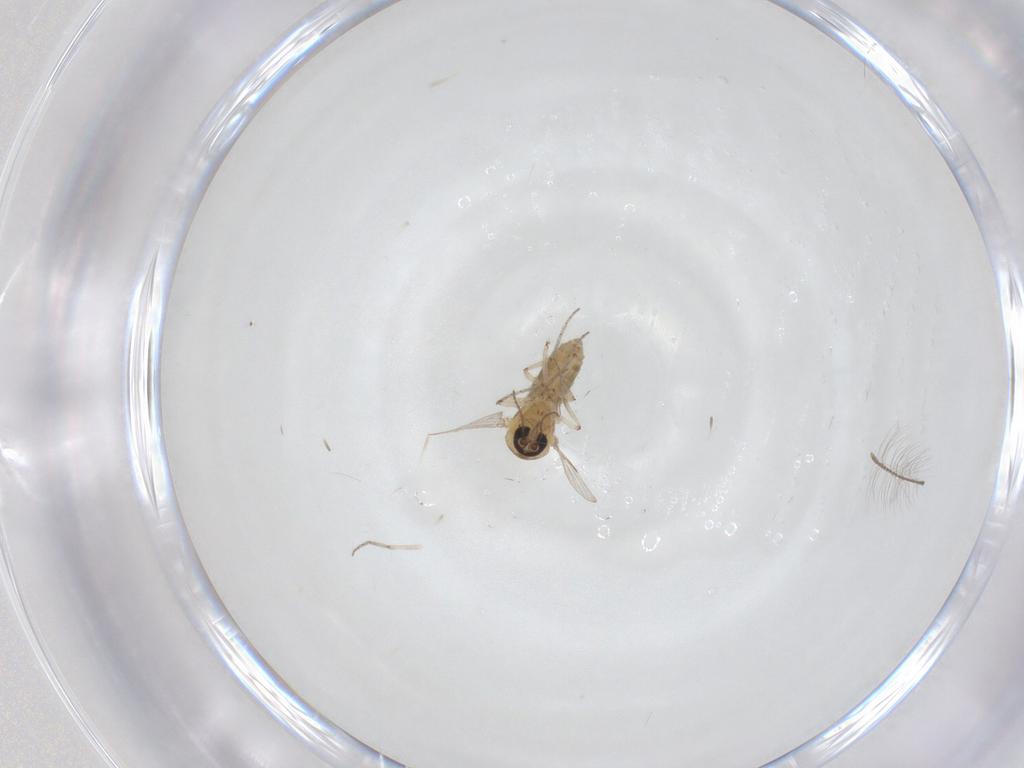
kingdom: Animalia
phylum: Arthropoda
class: Insecta
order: Diptera
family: Ceratopogonidae
